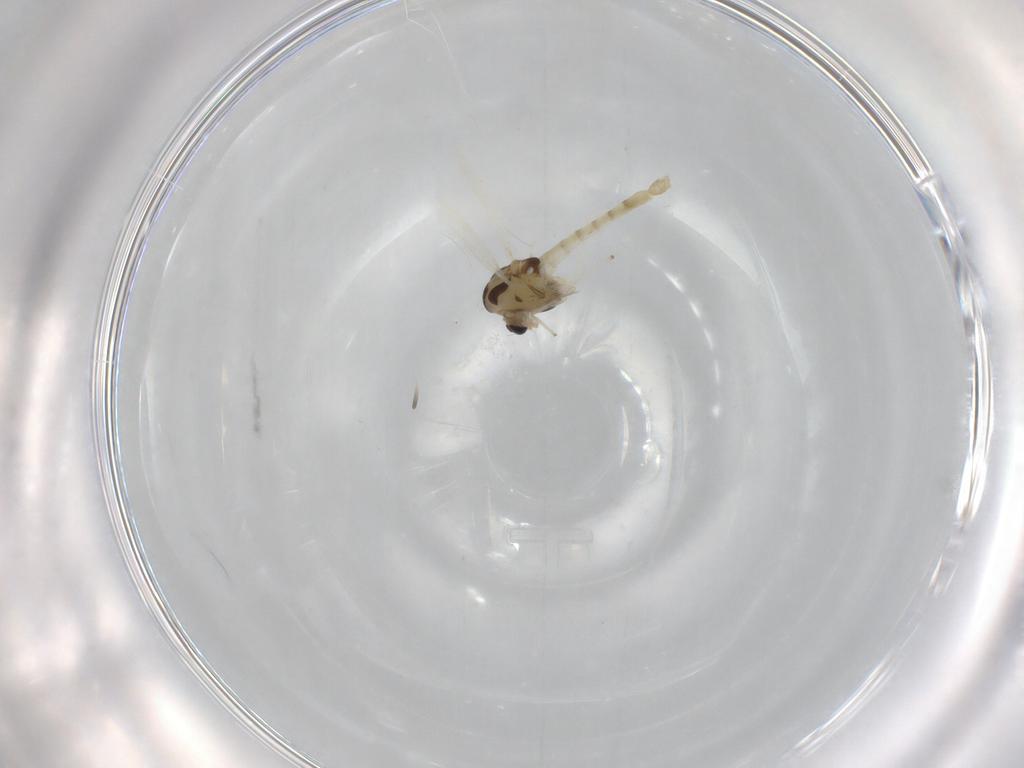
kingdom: Animalia
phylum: Arthropoda
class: Insecta
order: Diptera
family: Chironomidae
